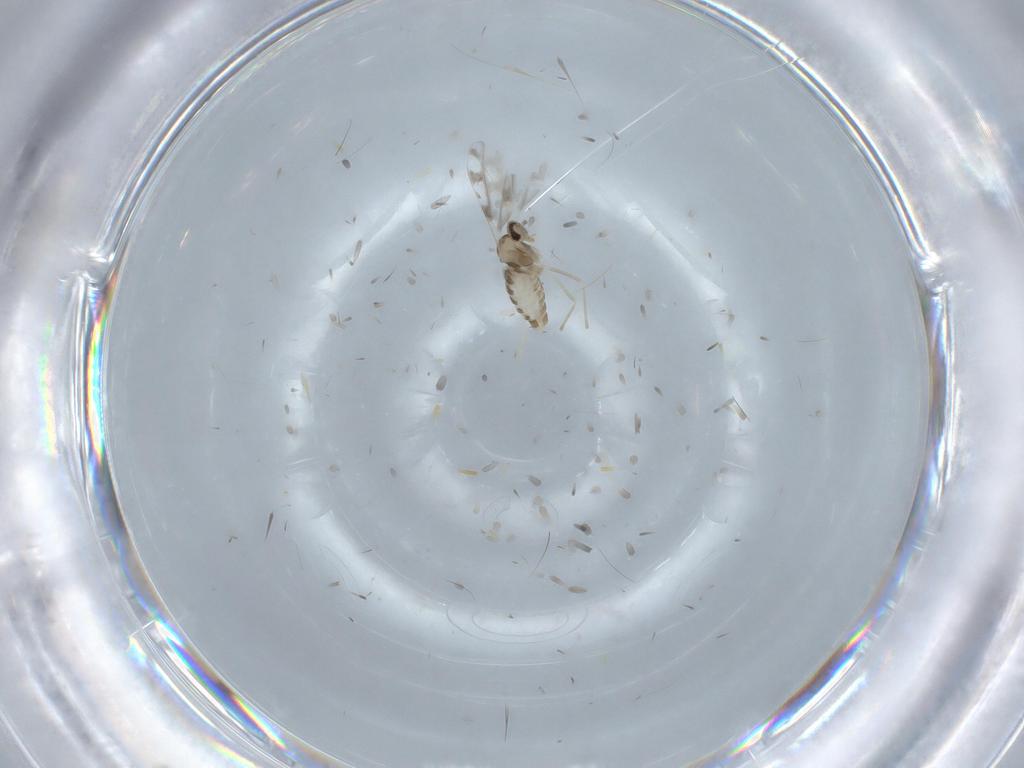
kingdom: Animalia
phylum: Arthropoda
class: Insecta
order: Diptera
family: Cecidomyiidae
